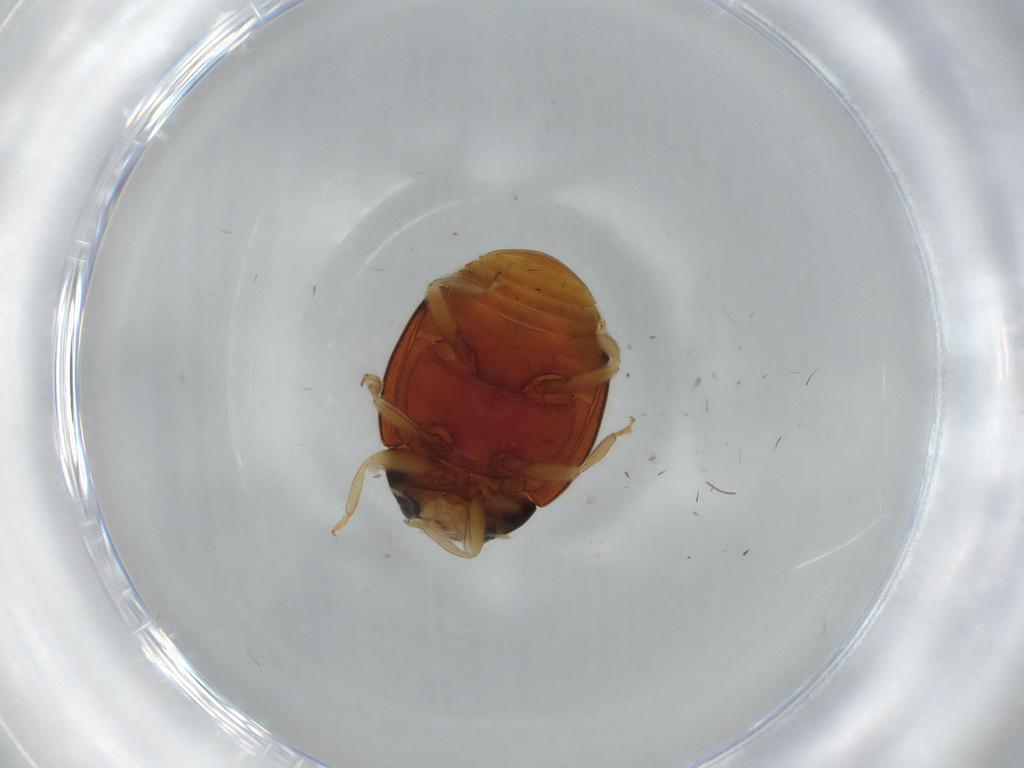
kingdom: Animalia
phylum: Arthropoda
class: Insecta
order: Coleoptera
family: Coccinellidae
